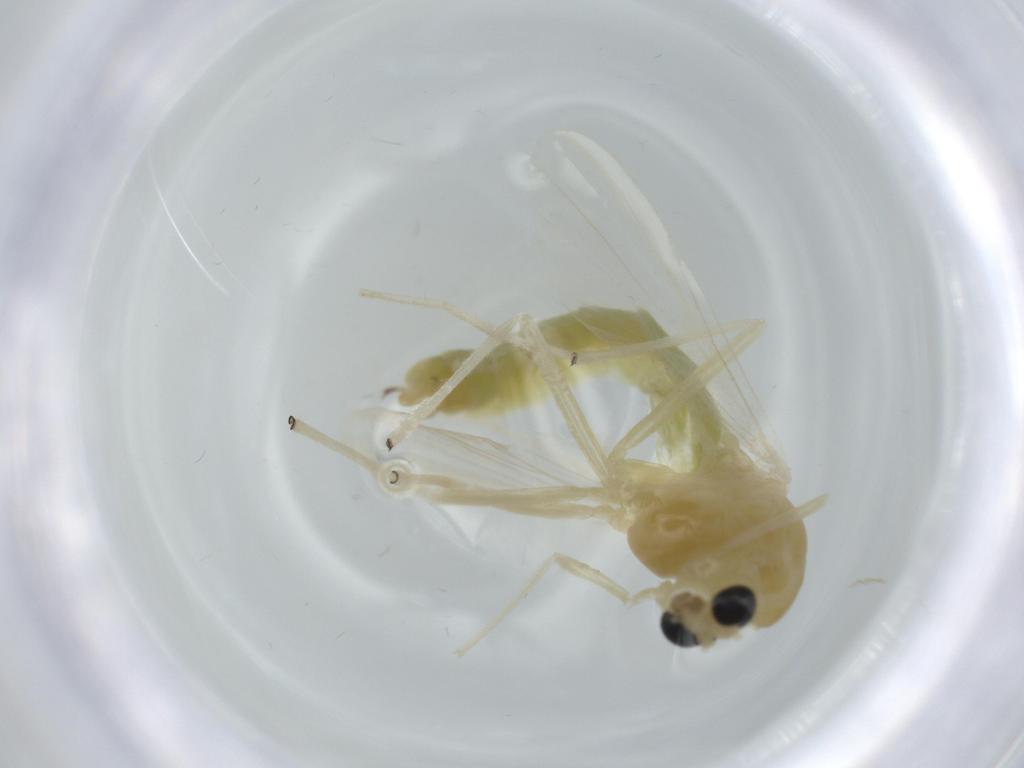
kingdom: Animalia
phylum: Arthropoda
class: Insecta
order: Diptera
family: Chironomidae
